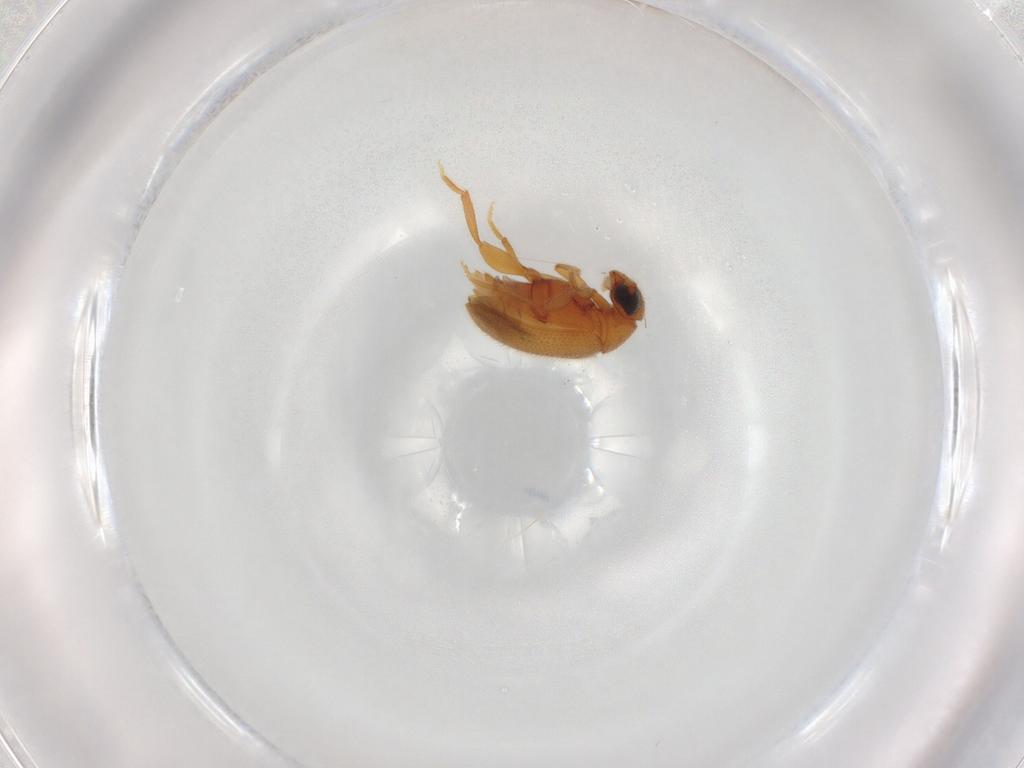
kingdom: Animalia
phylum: Arthropoda
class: Insecta
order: Coleoptera
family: Aderidae
